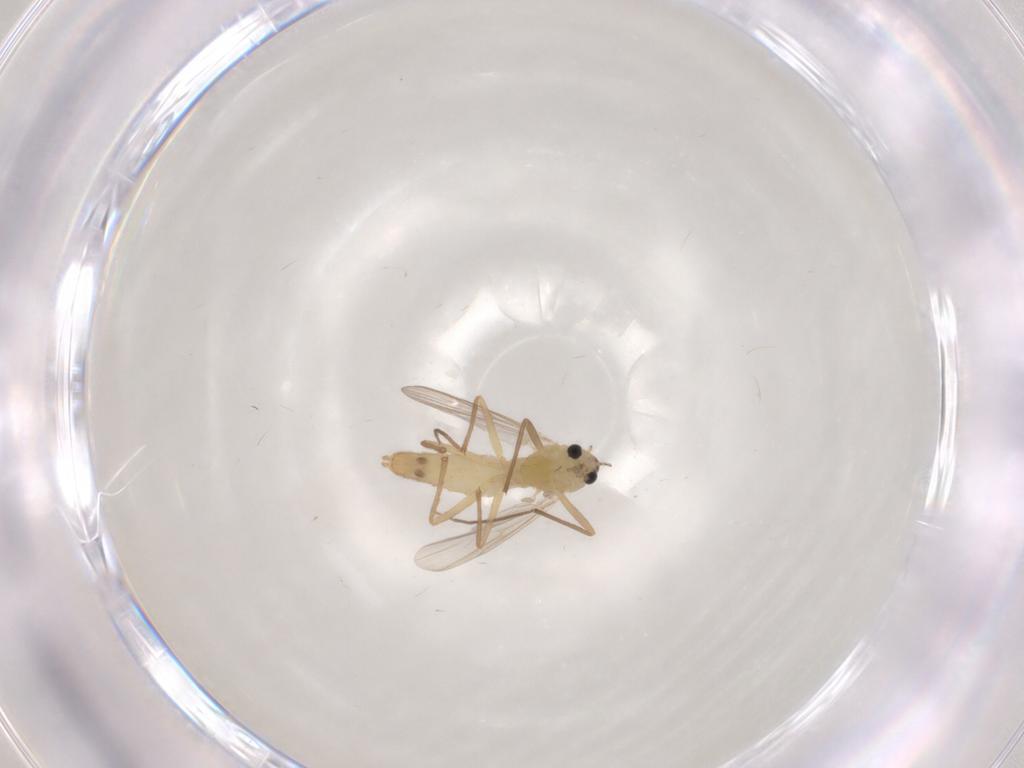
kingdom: Animalia
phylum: Arthropoda
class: Insecta
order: Diptera
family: Chironomidae
